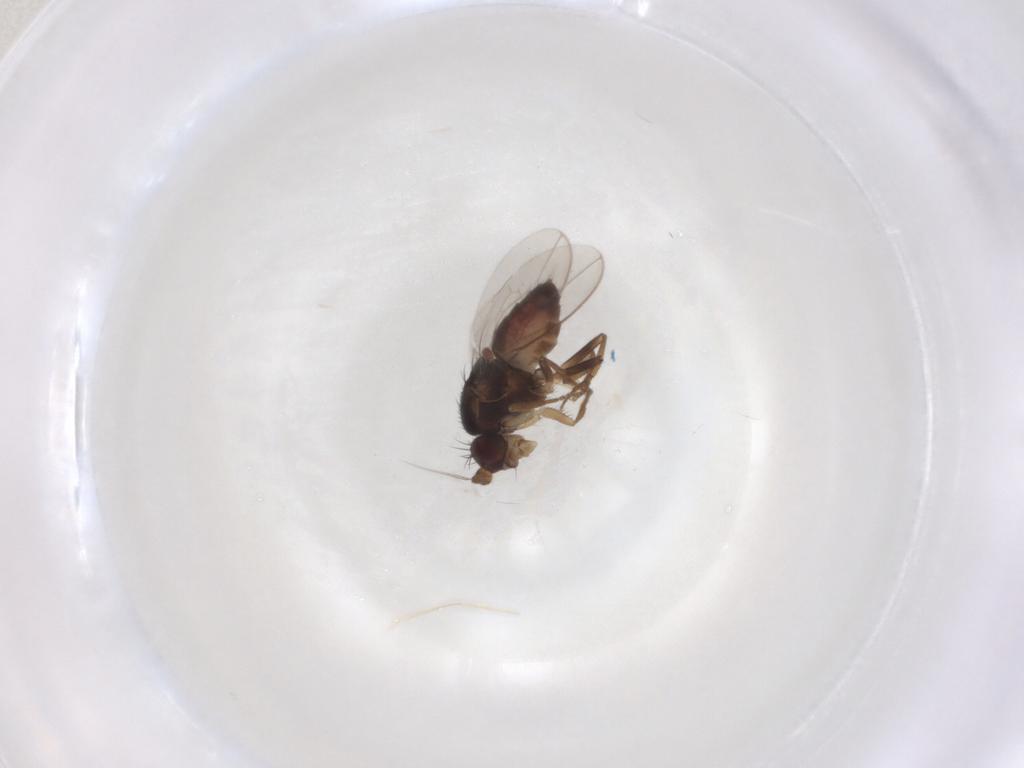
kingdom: Animalia
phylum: Arthropoda
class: Insecta
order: Diptera
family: Sphaeroceridae
